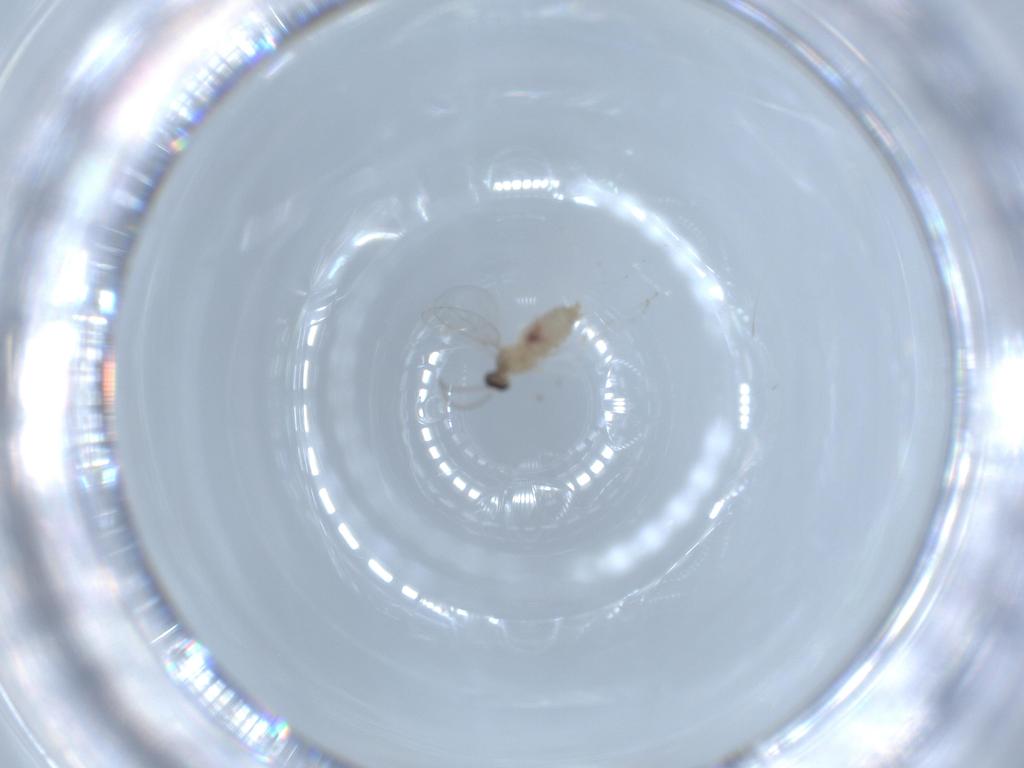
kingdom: Animalia
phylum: Arthropoda
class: Insecta
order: Diptera
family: Cecidomyiidae
